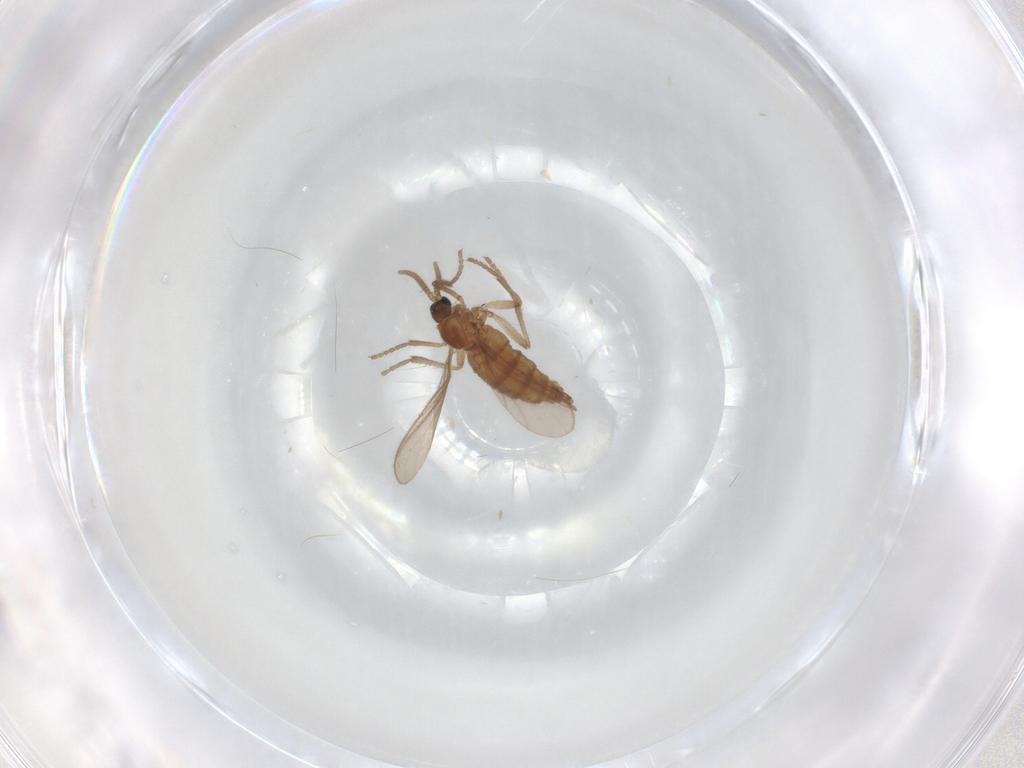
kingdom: Animalia
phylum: Arthropoda
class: Insecta
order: Diptera
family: Sciaridae
